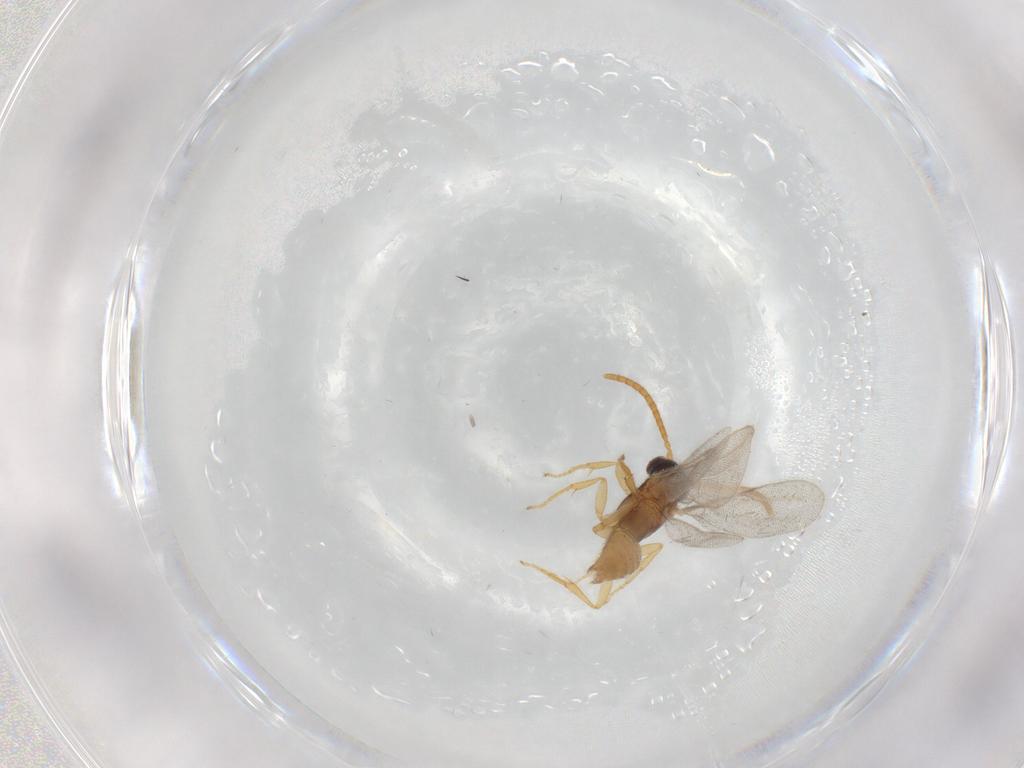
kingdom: Animalia
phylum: Arthropoda
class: Insecta
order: Hymenoptera
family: Bethylidae
